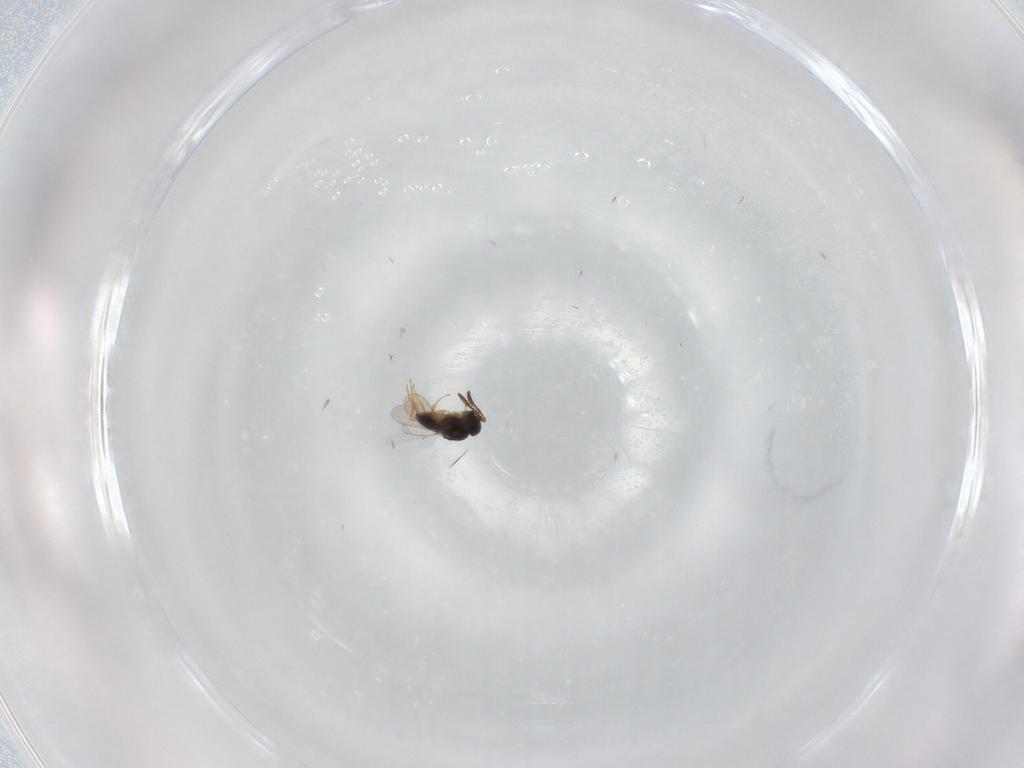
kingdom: Animalia
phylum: Arthropoda
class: Insecta
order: Hymenoptera
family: Scelionidae
